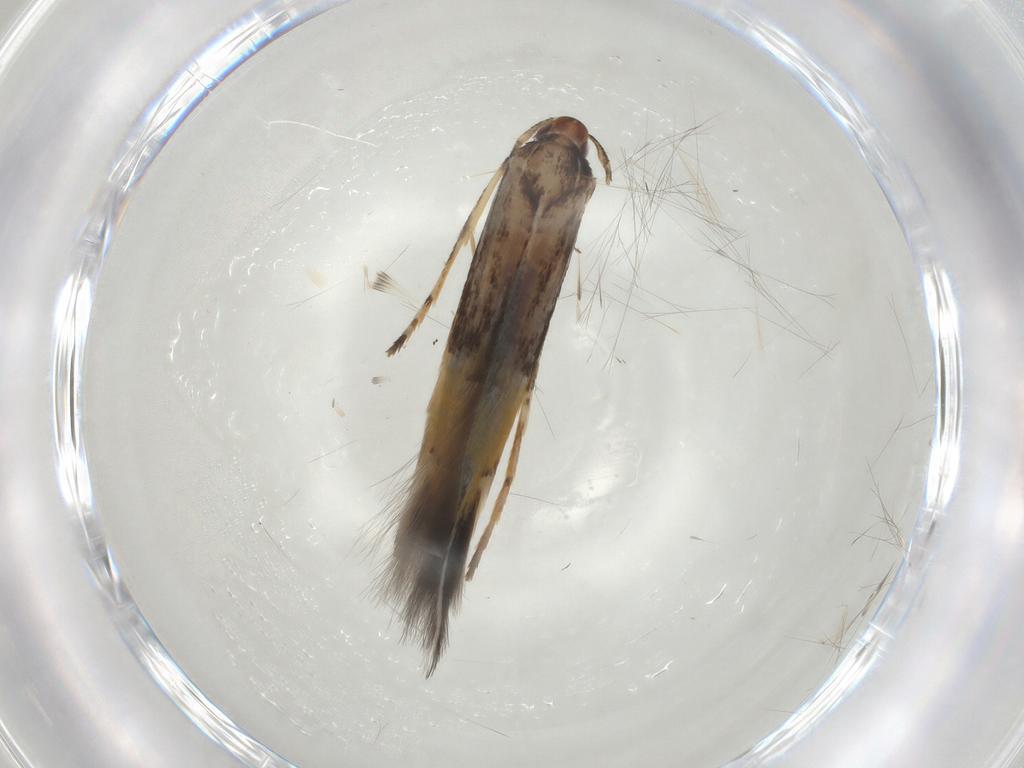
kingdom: Animalia
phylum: Arthropoda
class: Insecta
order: Lepidoptera
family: Cosmopterigidae
